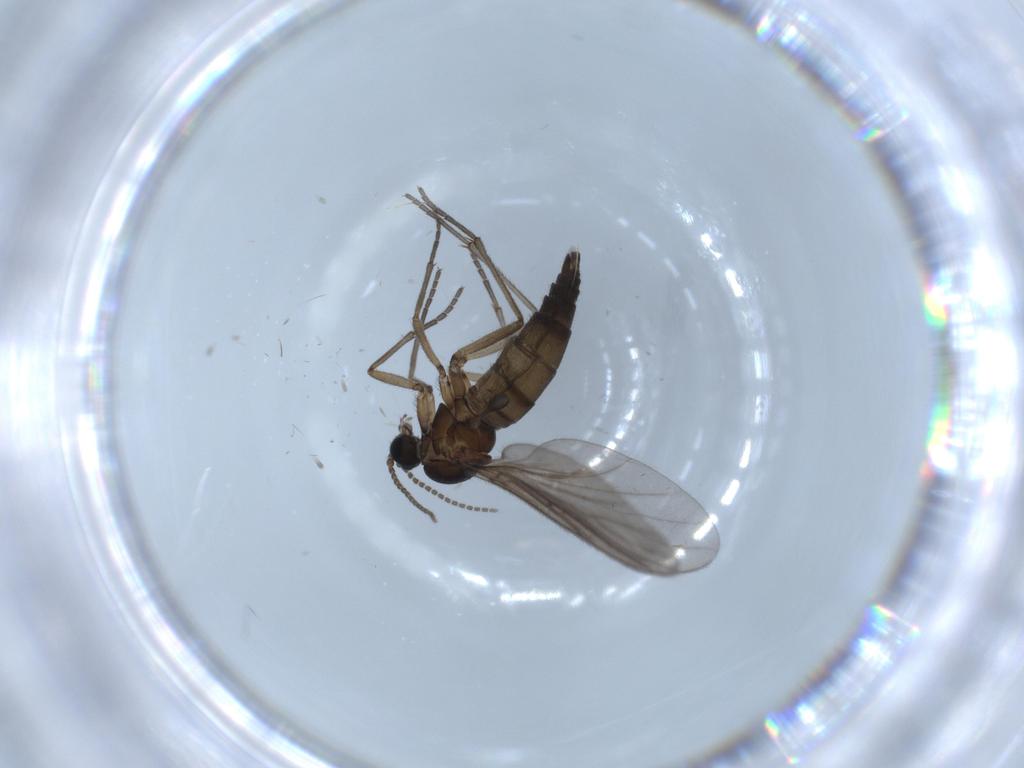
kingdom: Animalia
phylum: Arthropoda
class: Insecta
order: Diptera
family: Sciaridae
